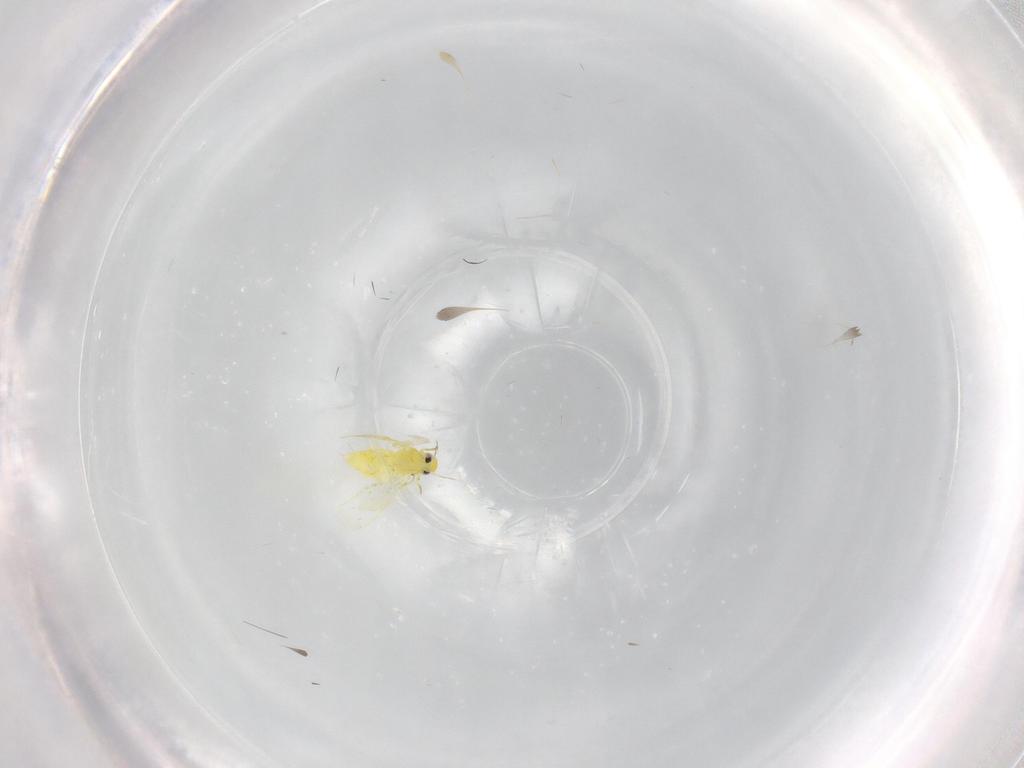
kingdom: Animalia
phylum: Arthropoda
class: Insecta
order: Hemiptera
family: Aleyrodidae
